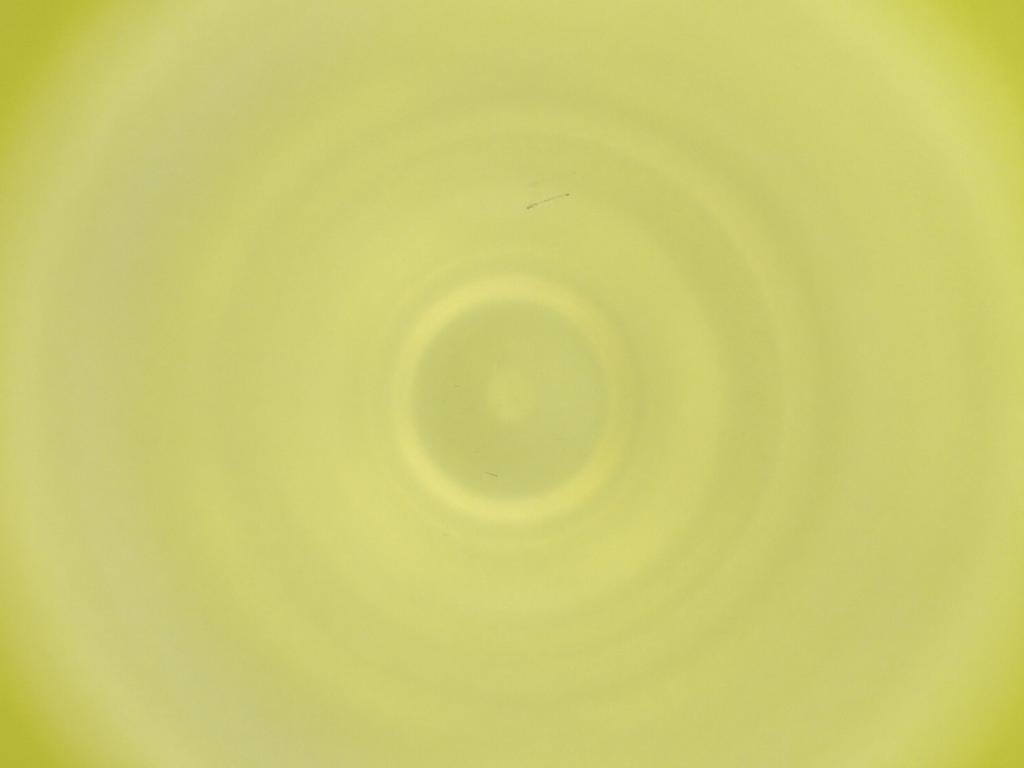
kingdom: Animalia
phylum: Arthropoda
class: Insecta
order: Diptera
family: Cecidomyiidae
